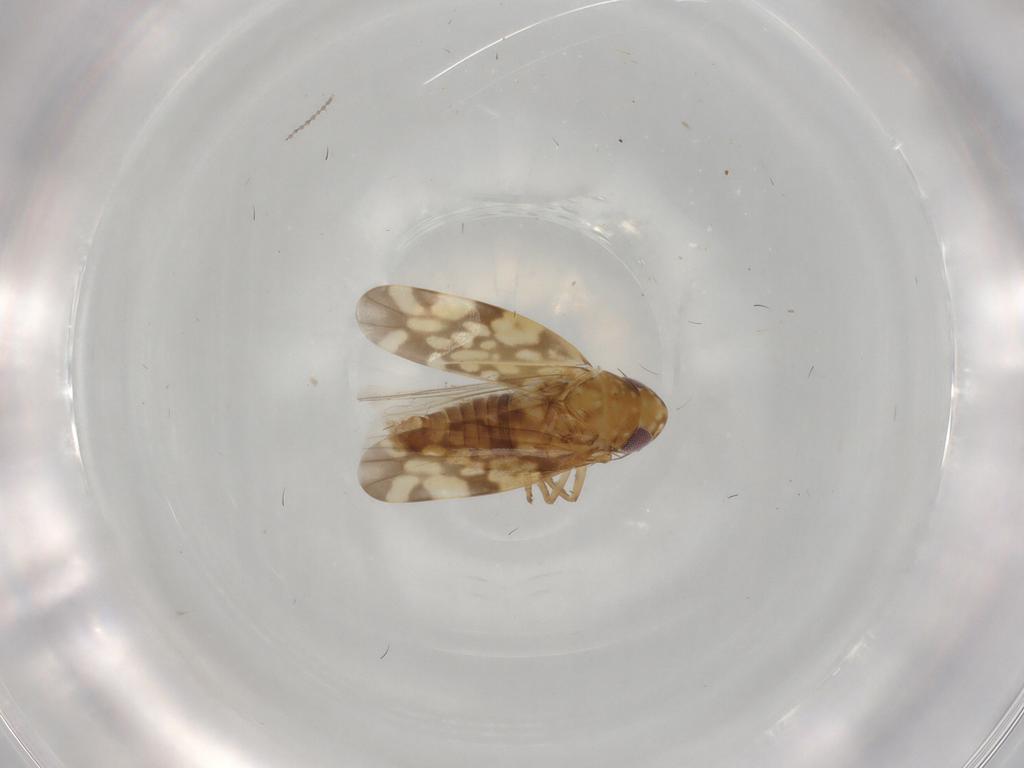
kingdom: Animalia
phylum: Arthropoda
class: Insecta
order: Hemiptera
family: Cicadellidae
